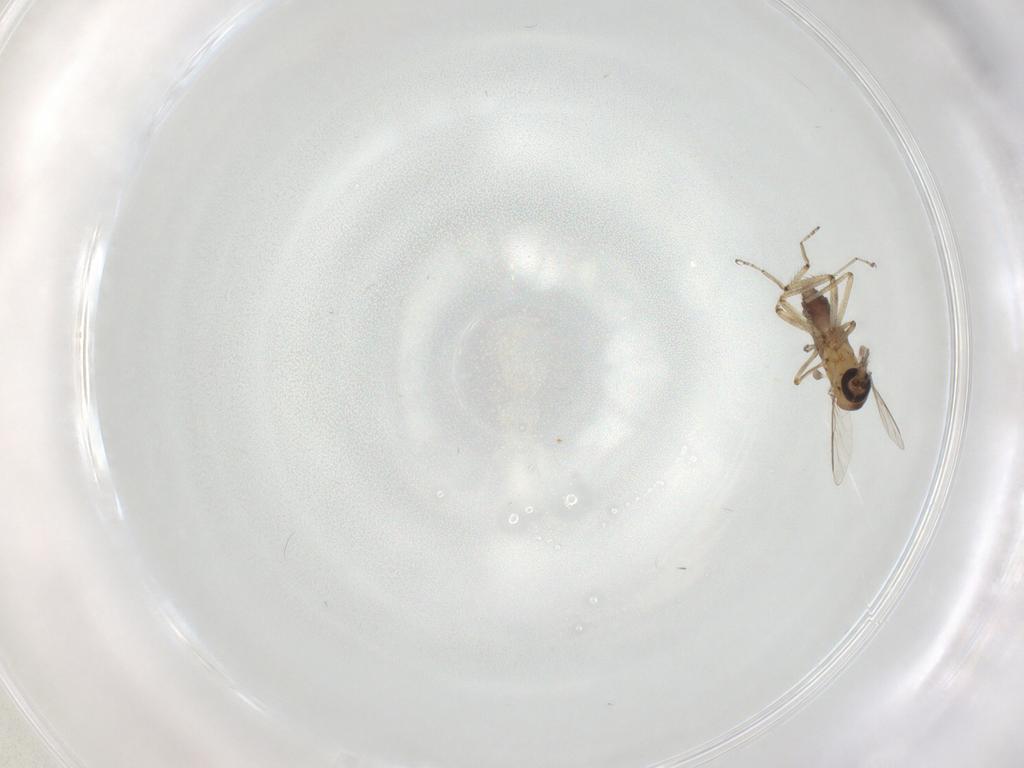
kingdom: Animalia
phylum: Arthropoda
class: Insecta
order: Diptera
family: Ceratopogonidae
